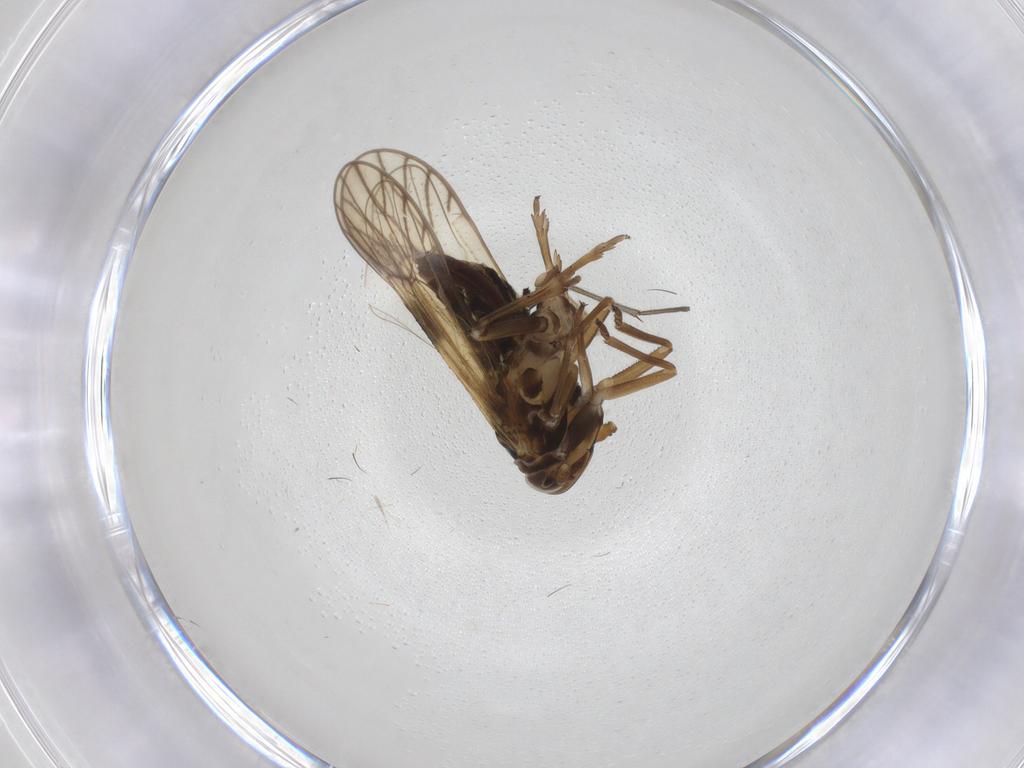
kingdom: Animalia
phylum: Arthropoda
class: Insecta
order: Hemiptera
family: Delphacidae
